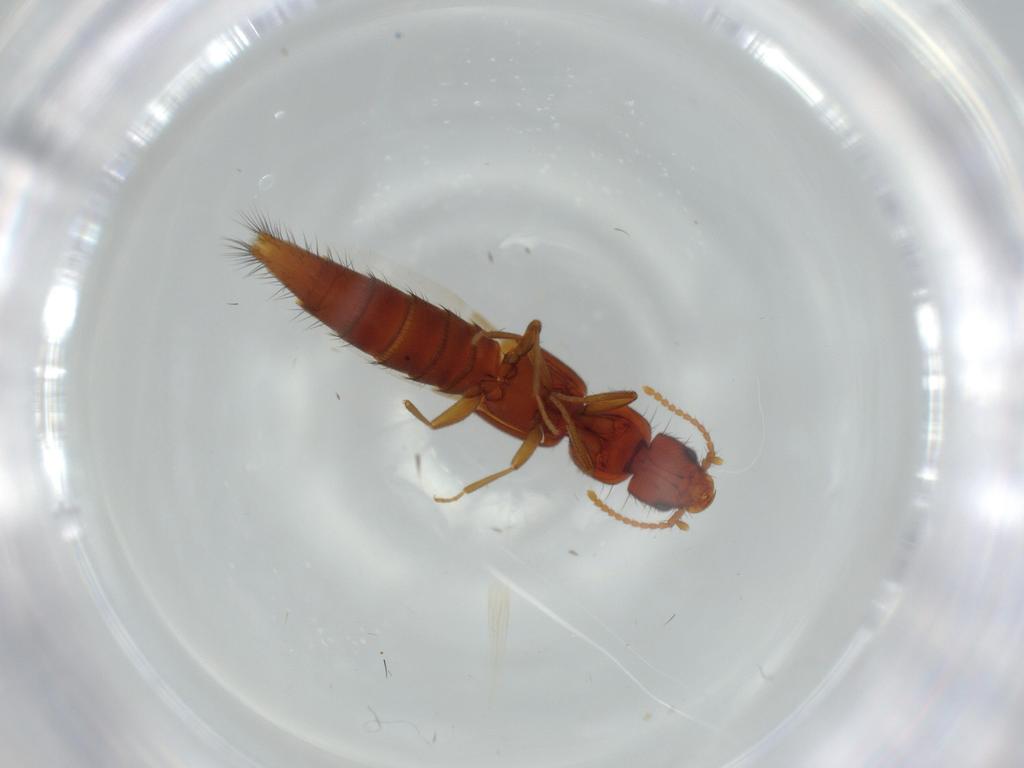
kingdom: Animalia
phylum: Arthropoda
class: Insecta
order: Coleoptera
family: Staphylinidae
